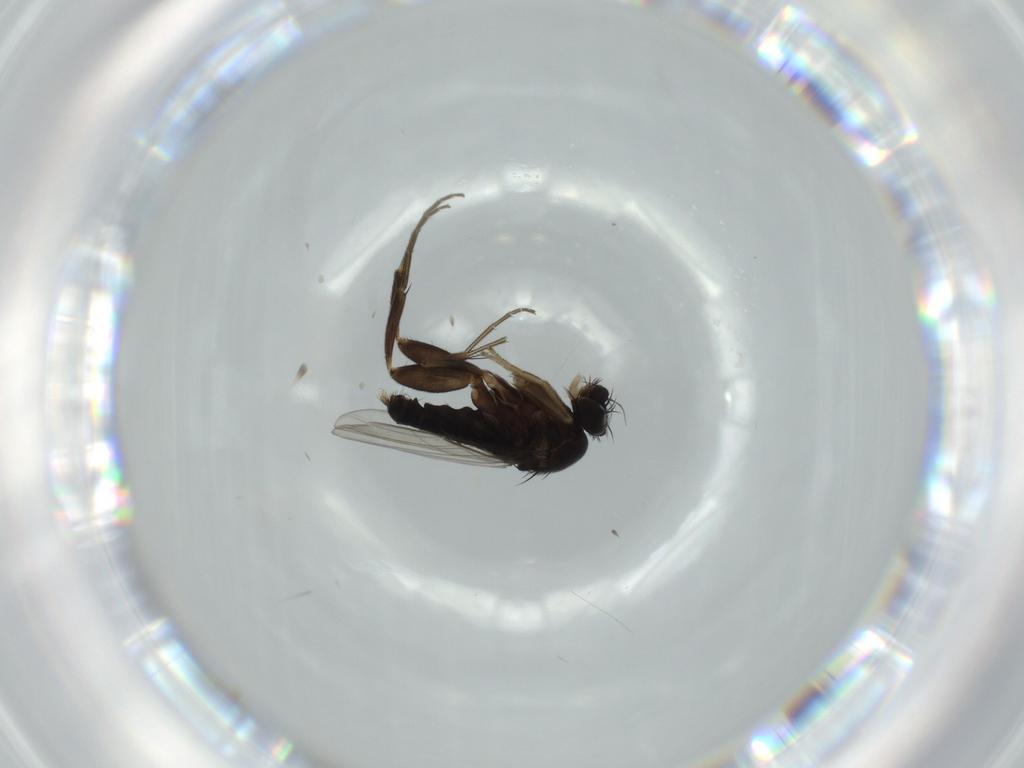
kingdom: Animalia
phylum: Arthropoda
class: Insecta
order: Diptera
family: Phoridae
